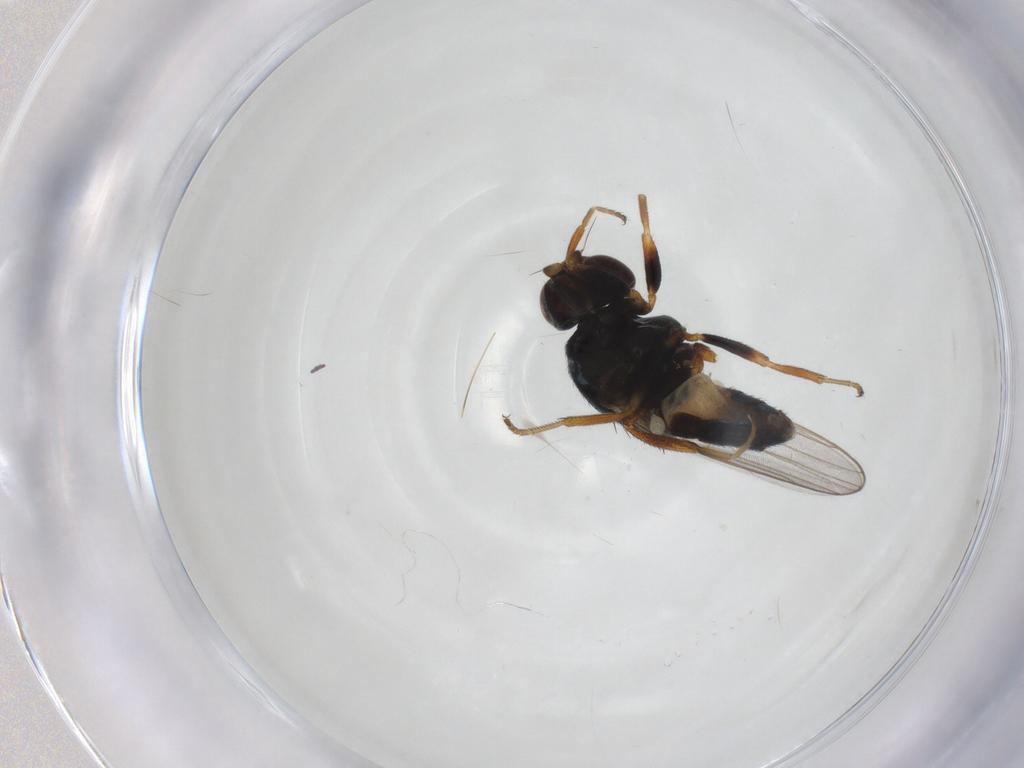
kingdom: Animalia
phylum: Arthropoda
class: Insecta
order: Diptera
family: Chloropidae
